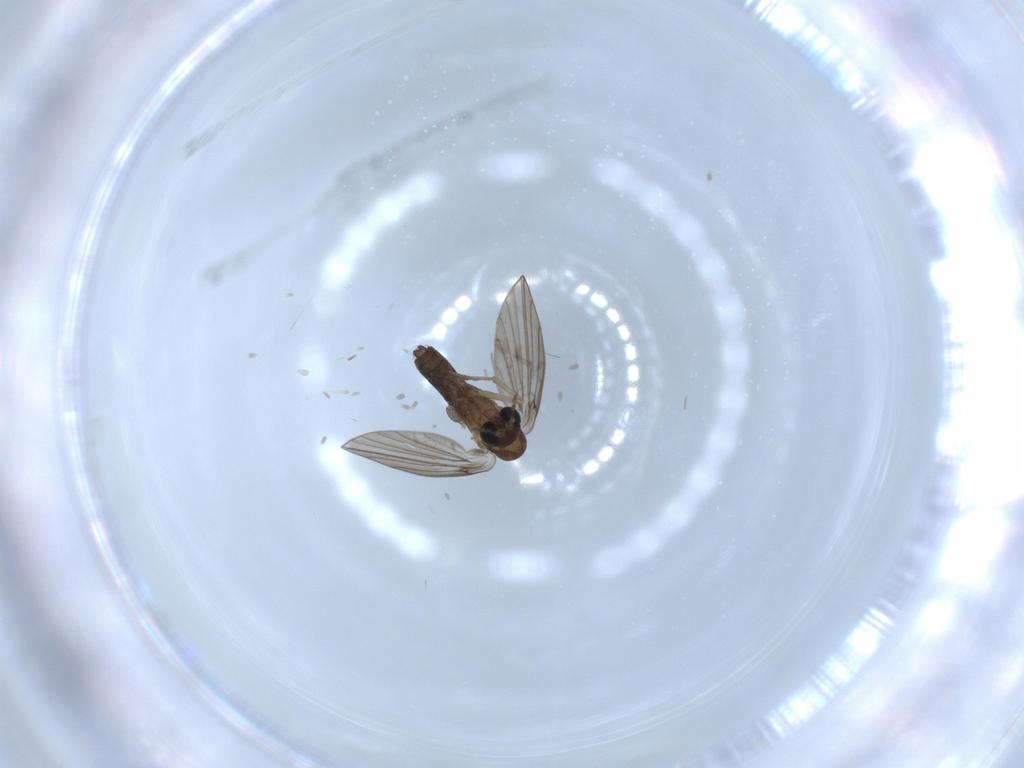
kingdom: Animalia
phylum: Arthropoda
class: Insecta
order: Diptera
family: Psychodidae
